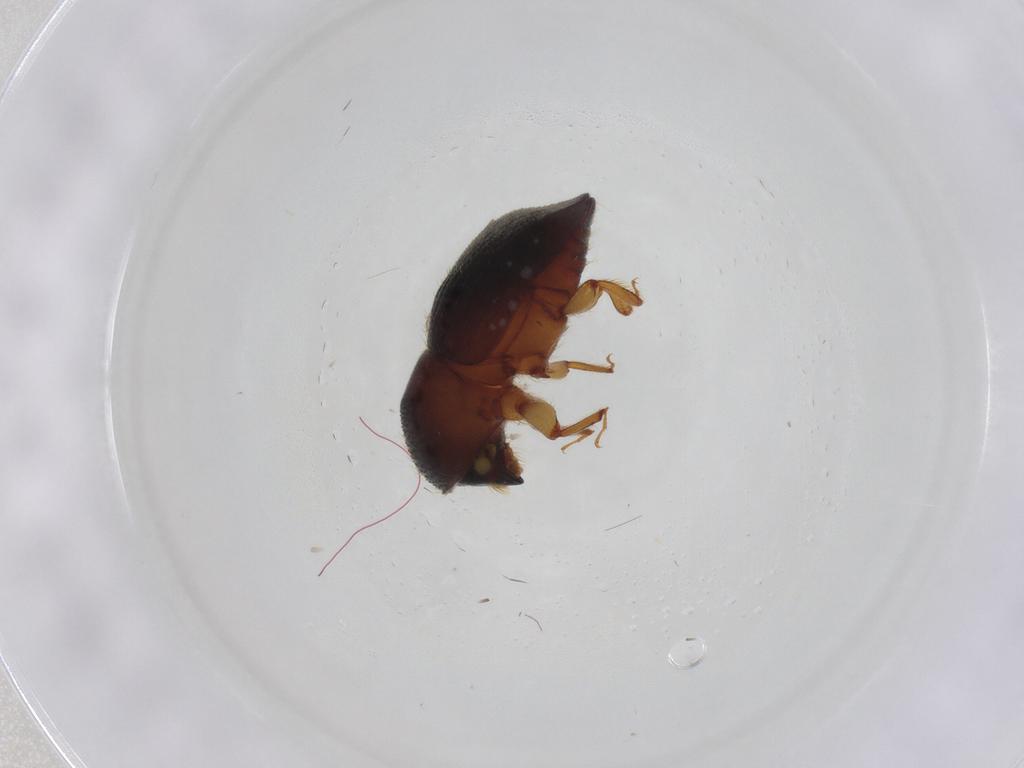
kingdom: Animalia
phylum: Arthropoda
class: Insecta
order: Coleoptera
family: Curculionidae
